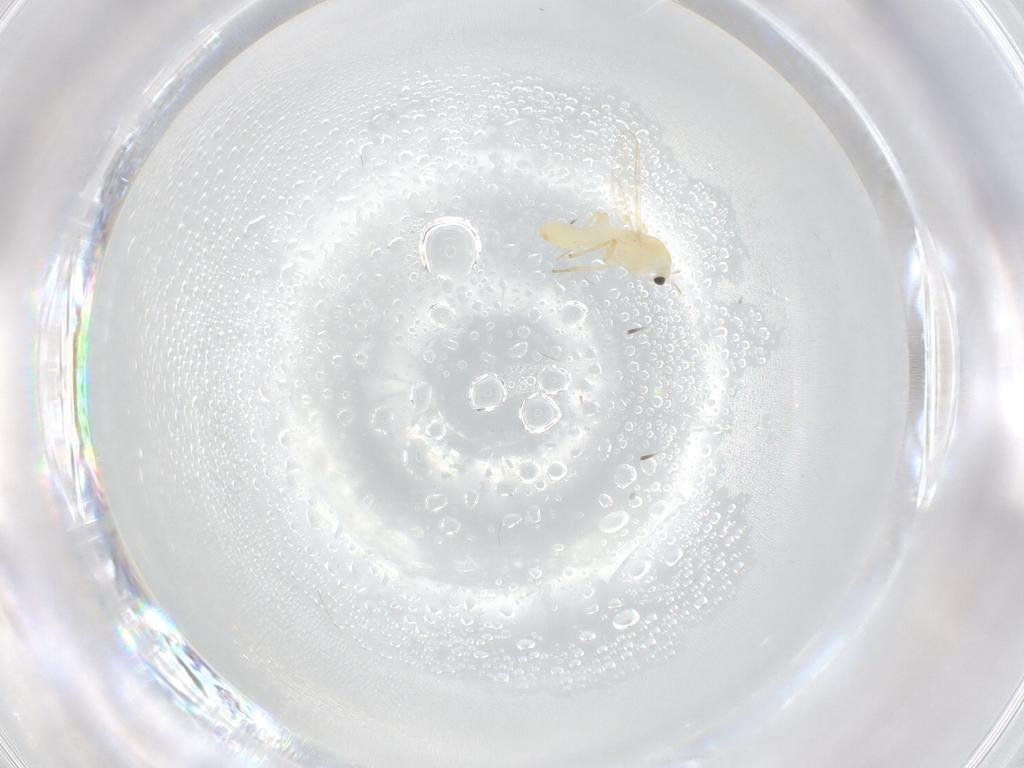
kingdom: Animalia
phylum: Arthropoda
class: Insecta
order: Diptera
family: Chironomidae
